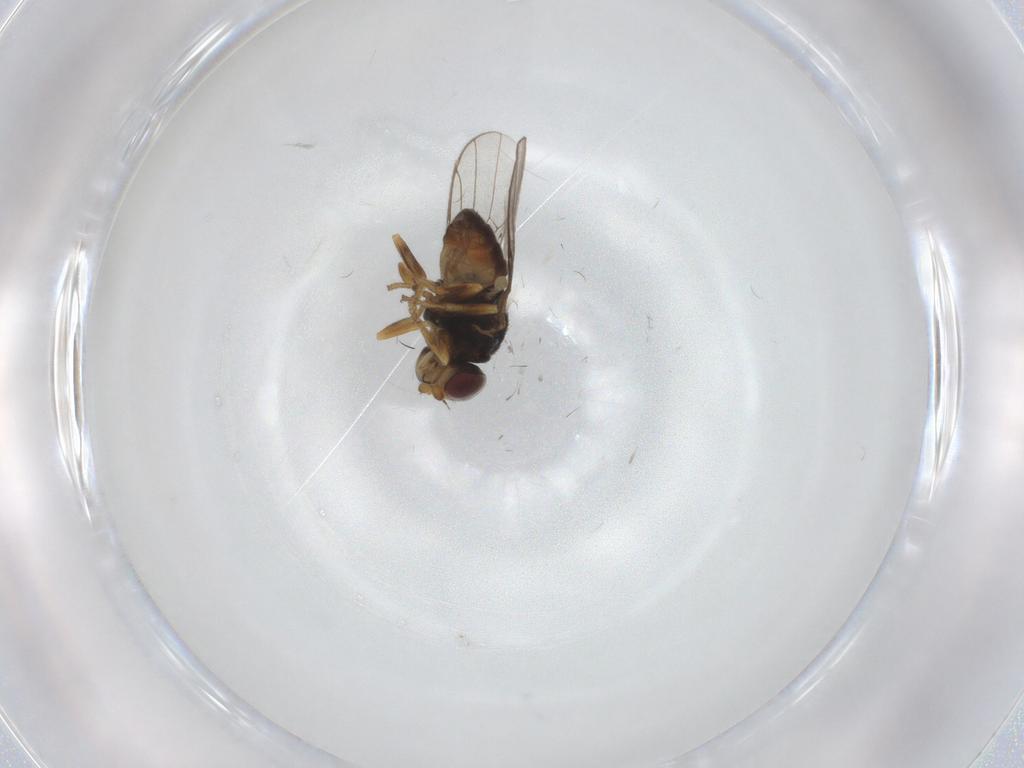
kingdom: Animalia
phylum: Arthropoda
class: Insecta
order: Diptera
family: Chloropidae
